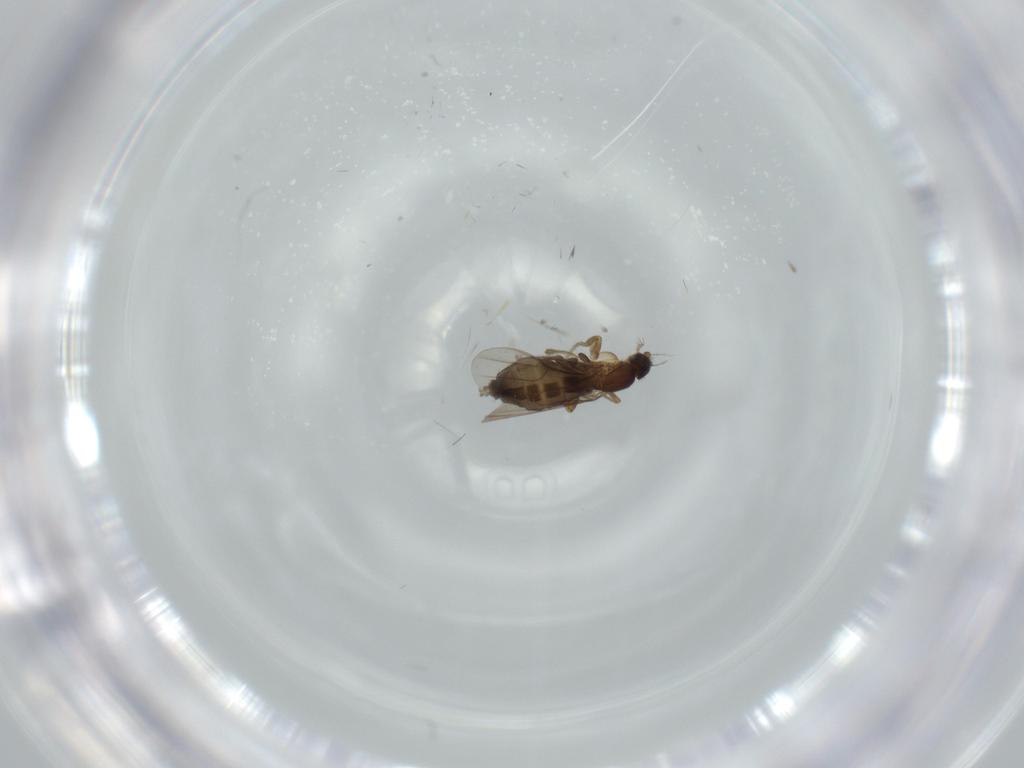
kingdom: Animalia
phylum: Arthropoda
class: Insecta
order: Diptera
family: Phoridae
